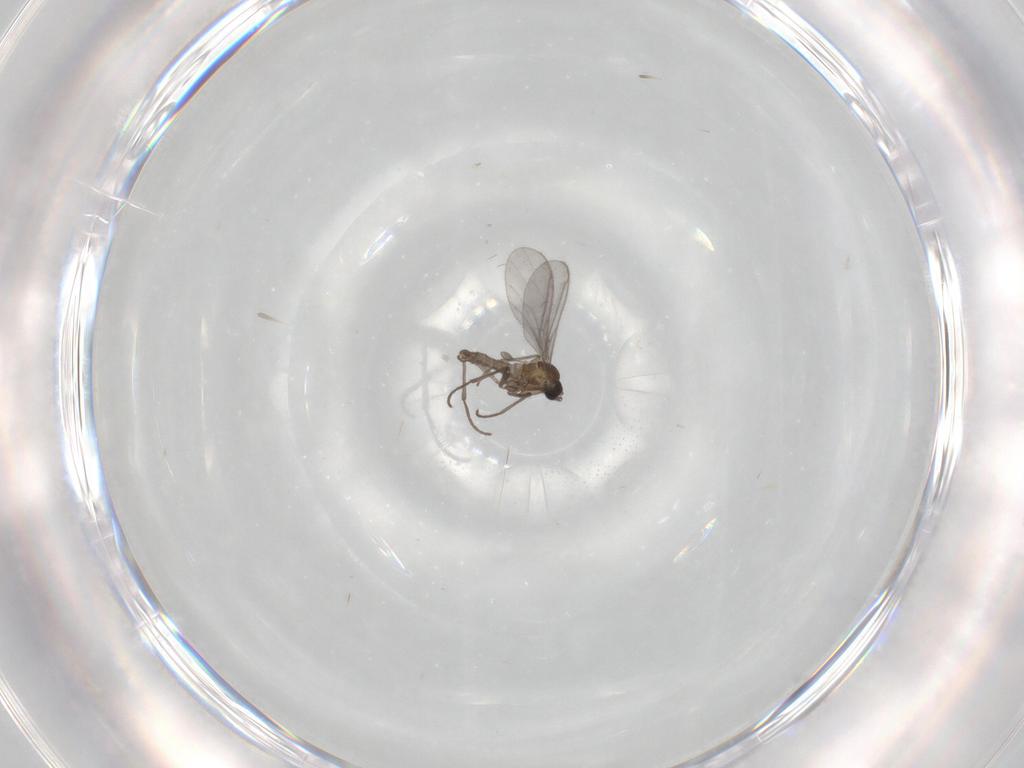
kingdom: Animalia
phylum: Arthropoda
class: Insecta
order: Diptera
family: Sciaridae
